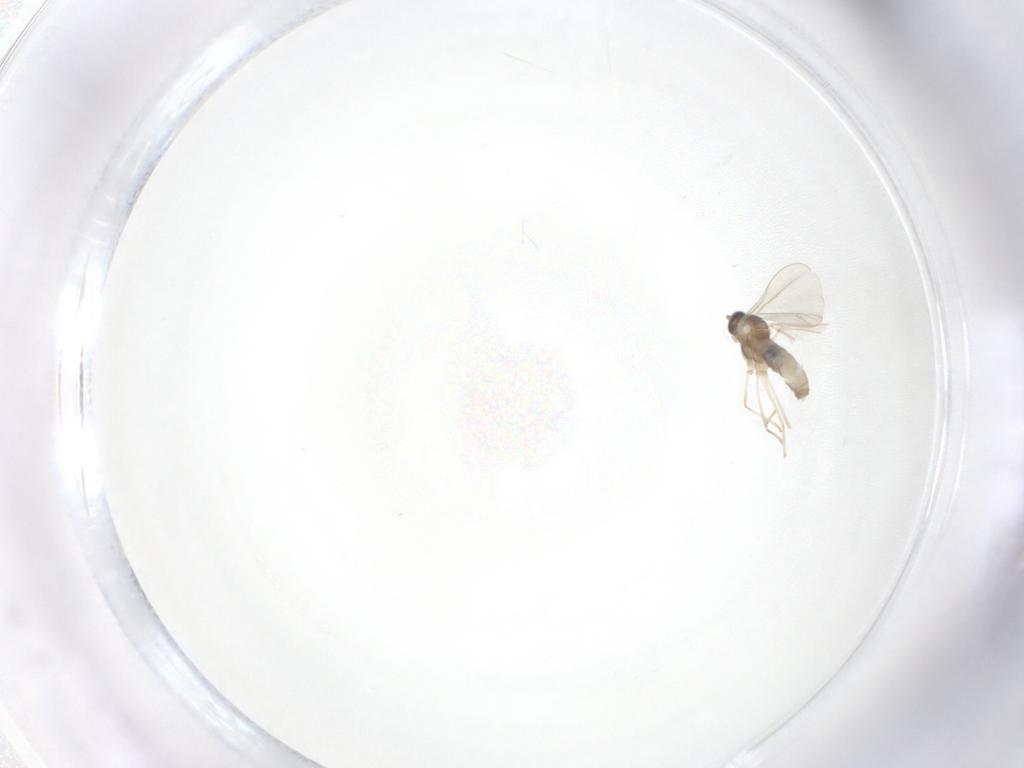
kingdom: Animalia
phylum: Arthropoda
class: Insecta
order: Diptera
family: Cecidomyiidae
